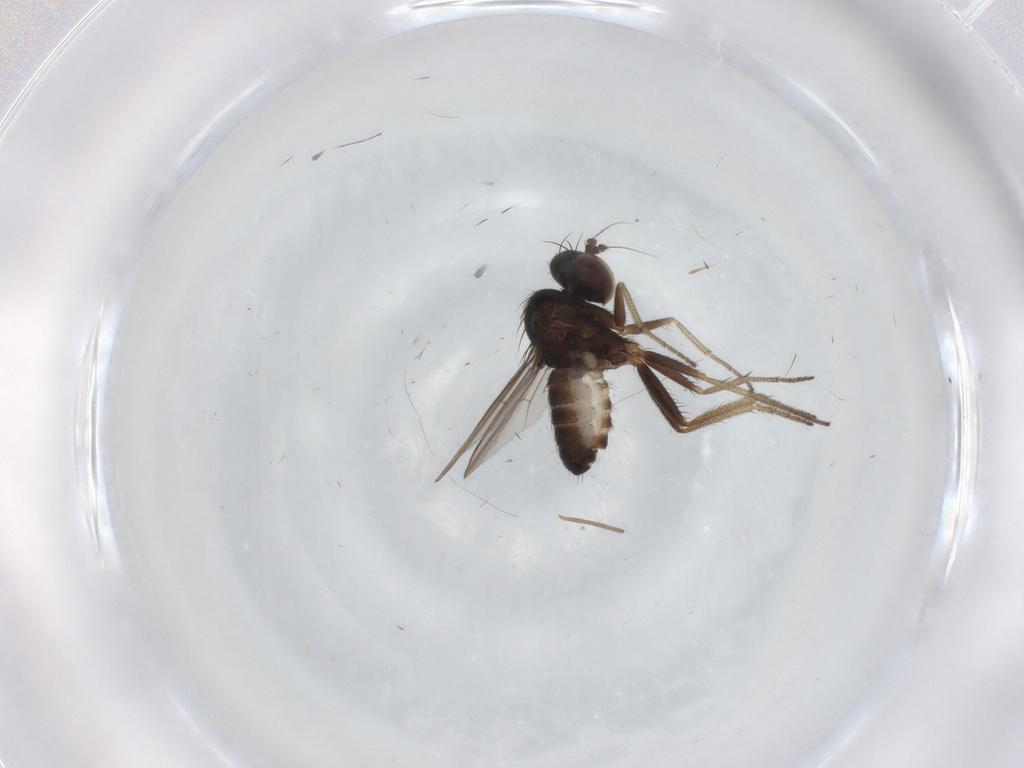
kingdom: Animalia
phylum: Arthropoda
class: Insecta
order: Diptera
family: Chironomidae
